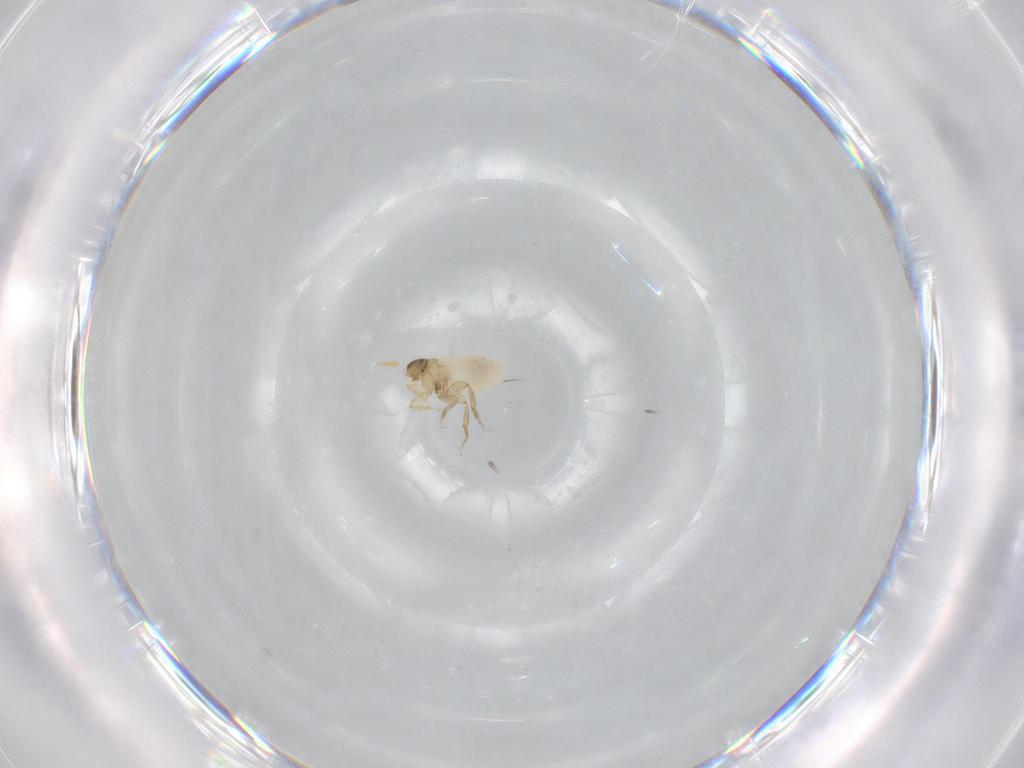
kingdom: Animalia
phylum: Arthropoda
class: Insecta
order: Diptera
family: Phoridae
